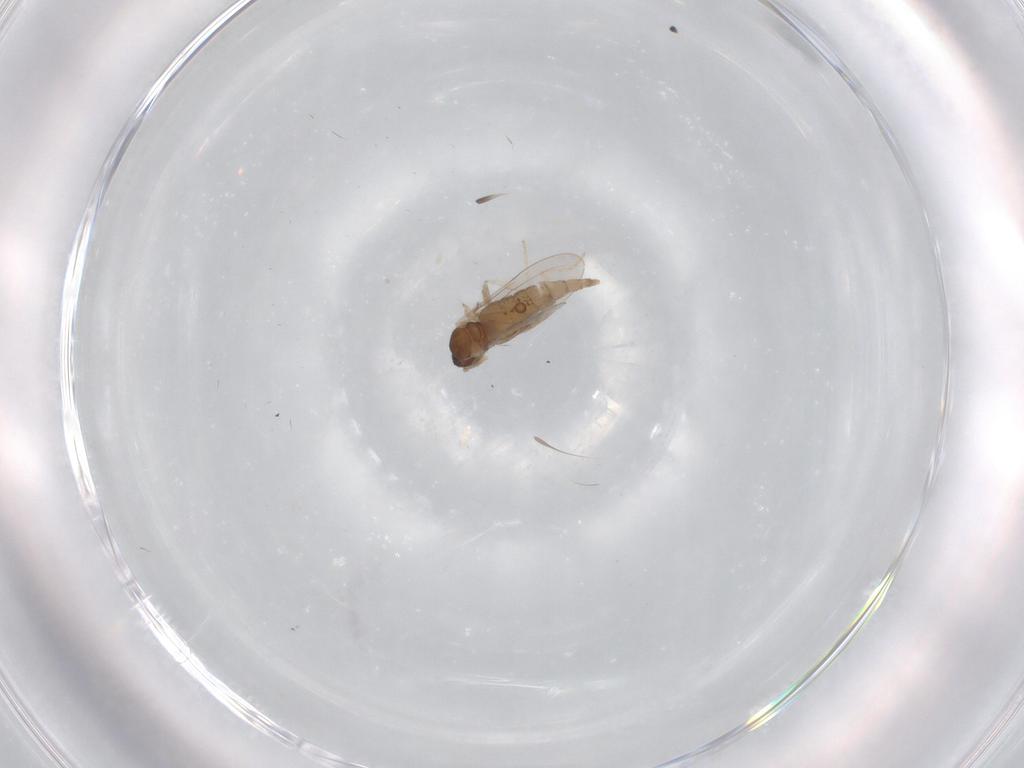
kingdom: Animalia
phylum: Arthropoda
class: Insecta
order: Diptera
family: Cecidomyiidae
